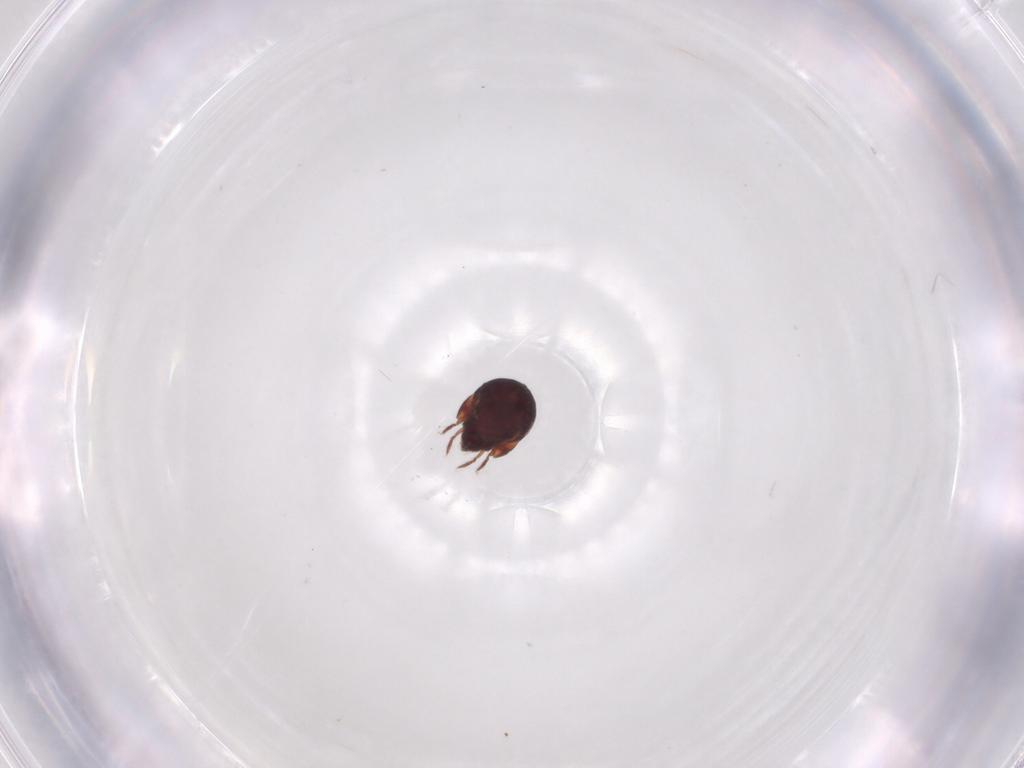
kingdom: Animalia
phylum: Arthropoda
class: Arachnida
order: Sarcoptiformes
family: Humerobatidae
